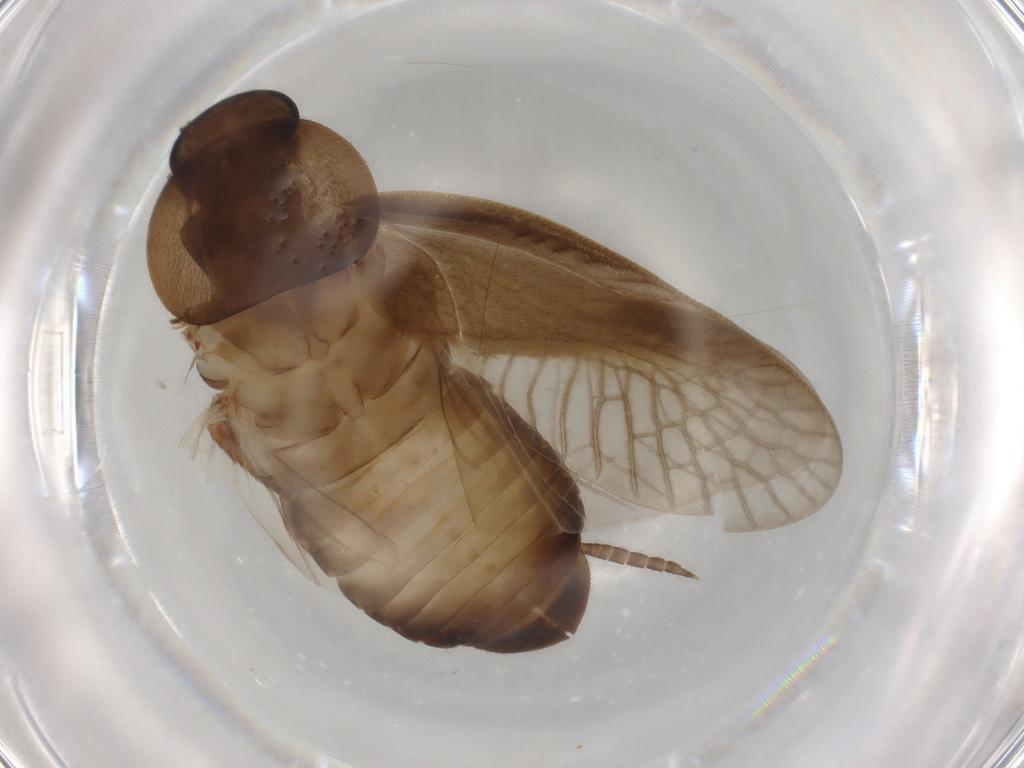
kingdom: Animalia
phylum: Arthropoda
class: Insecta
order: Blattodea
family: Ectobiidae
